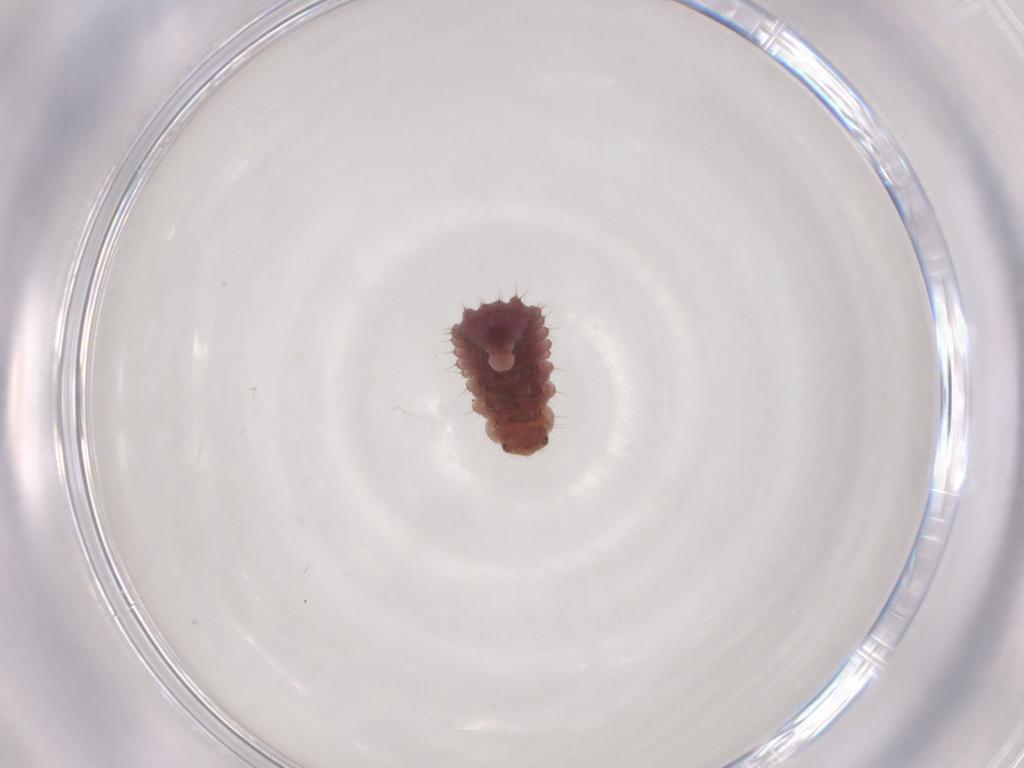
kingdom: Animalia
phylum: Arthropoda
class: Insecta
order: Coleoptera
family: Coccinellidae
